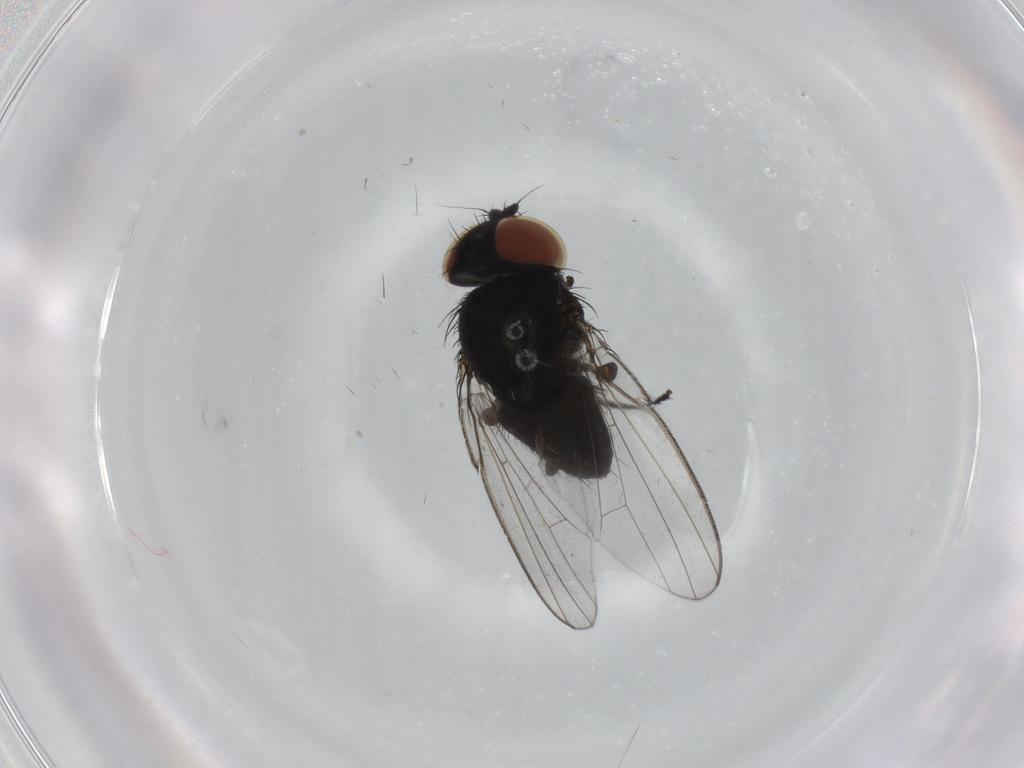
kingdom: Animalia
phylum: Arthropoda
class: Insecta
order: Diptera
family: Milichiidae
